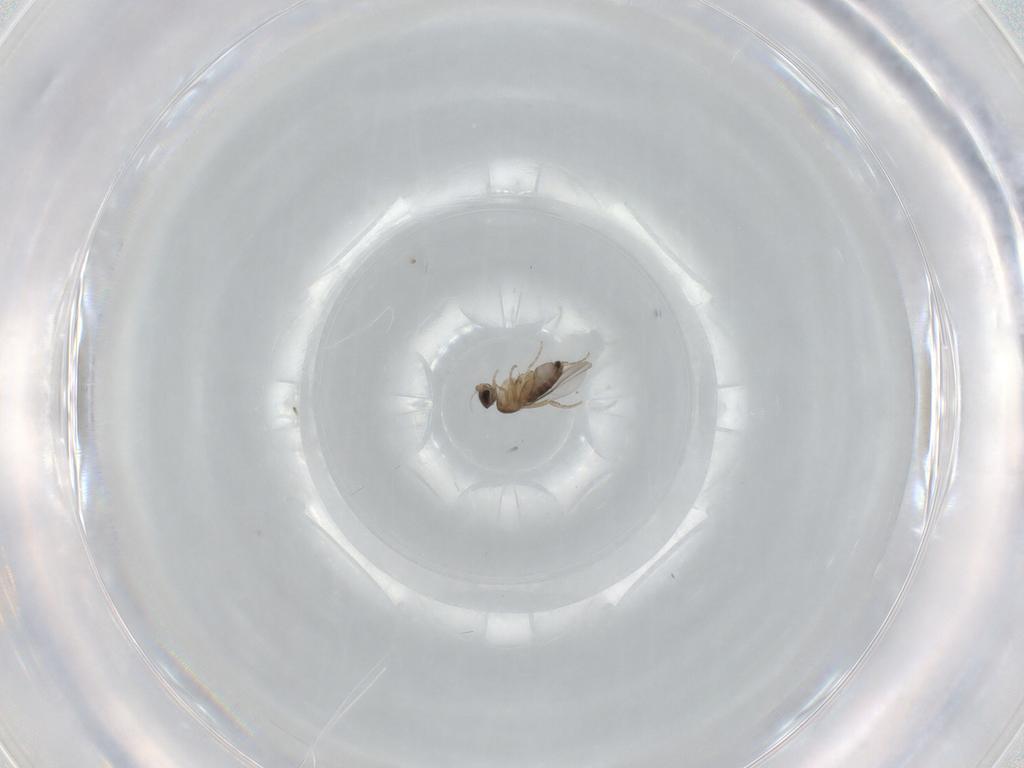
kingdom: Animalia
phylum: Arthropoda
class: Insecta
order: Diptera
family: Phoridae
